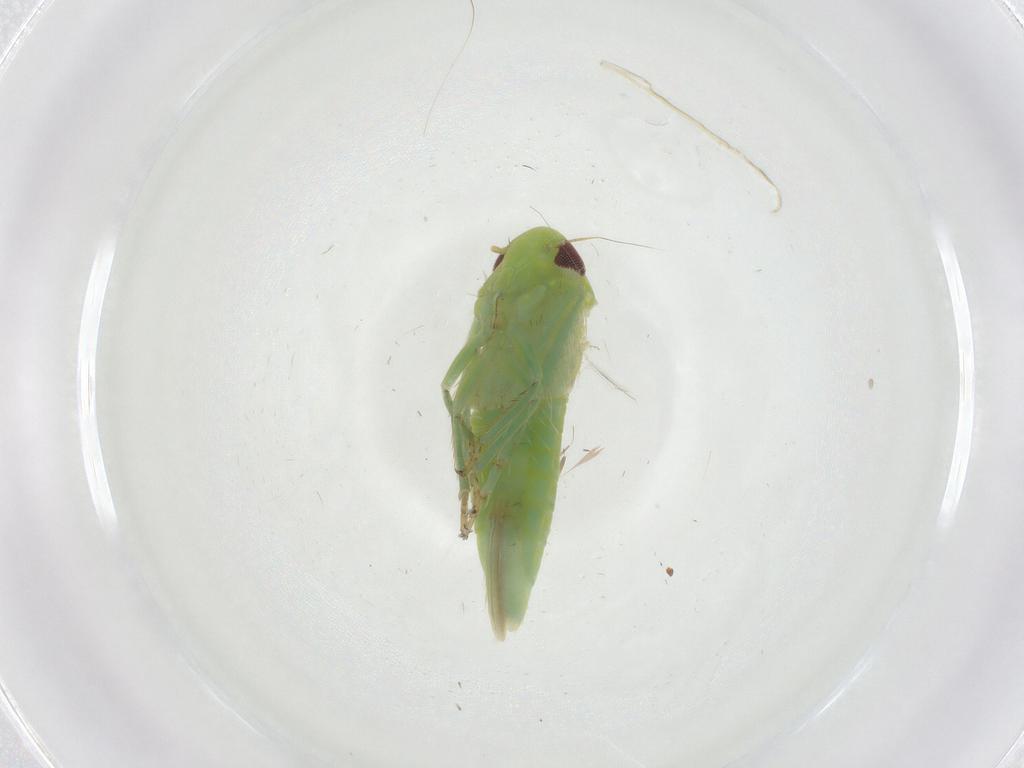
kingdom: Animalia
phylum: Arthropoda
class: Insecta
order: Hemiptera
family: Cicadellidae
